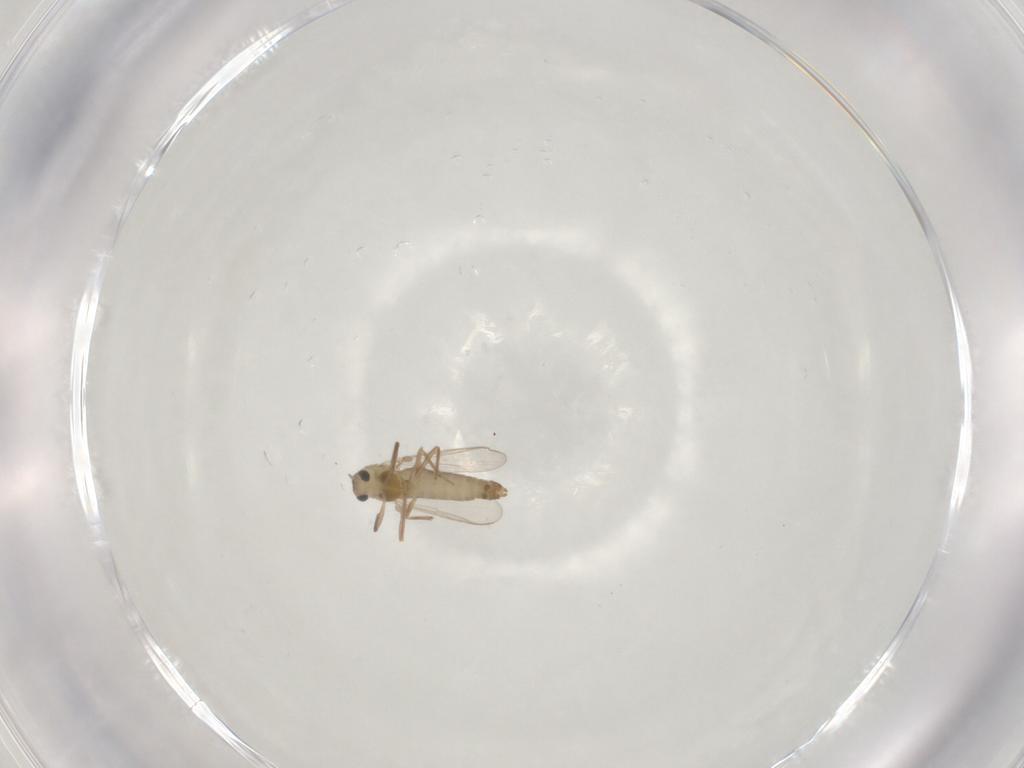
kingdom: Animalia
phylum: Arthropoda
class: Insecta
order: Diptera
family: Chironomidae
